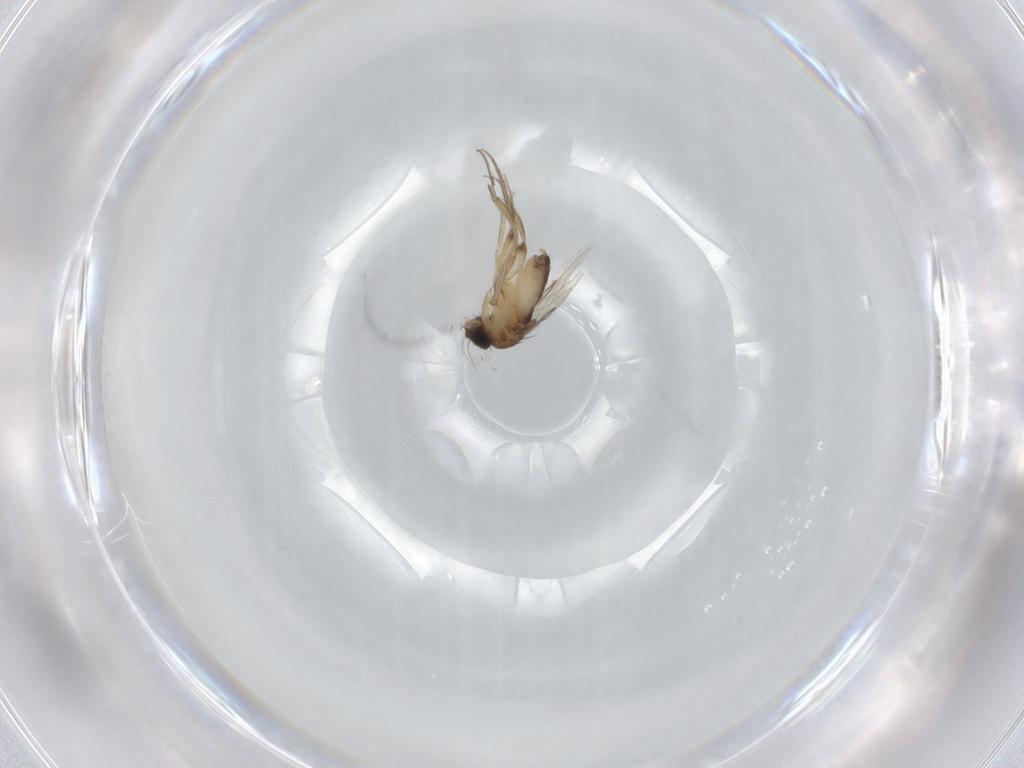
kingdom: Animalia
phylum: Arthropoda
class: Insecta
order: Diptera
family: Phoridae
